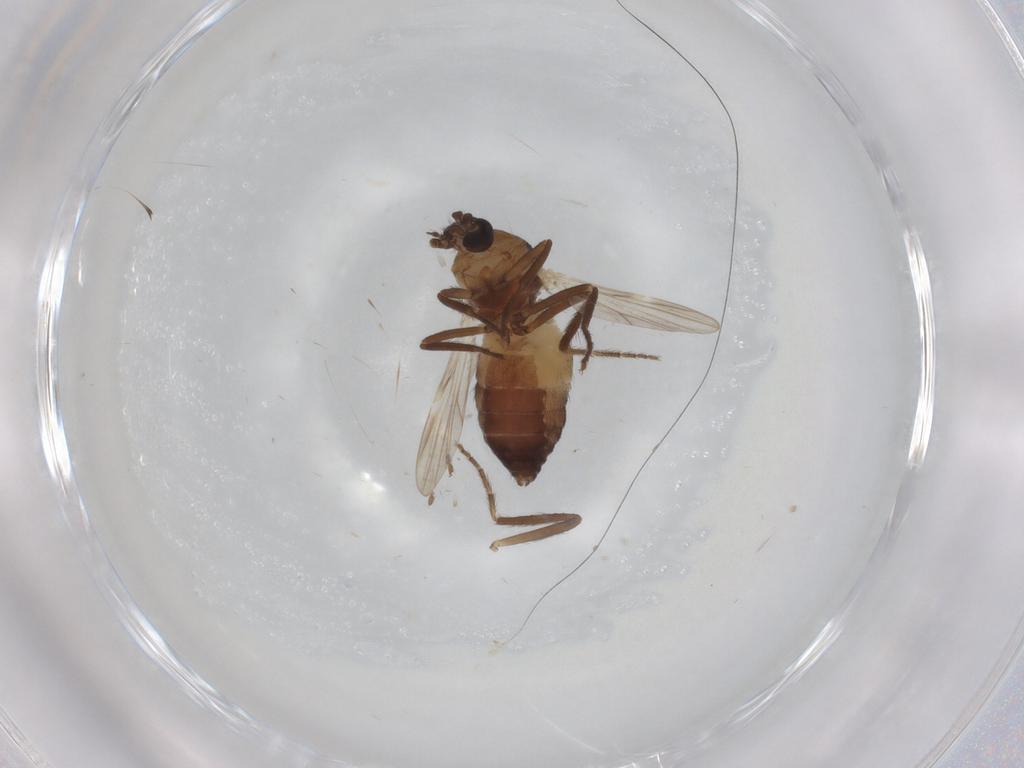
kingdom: Animalia
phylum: Arthropoda
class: Insecta
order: Diptera
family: Ceratopogonidae
